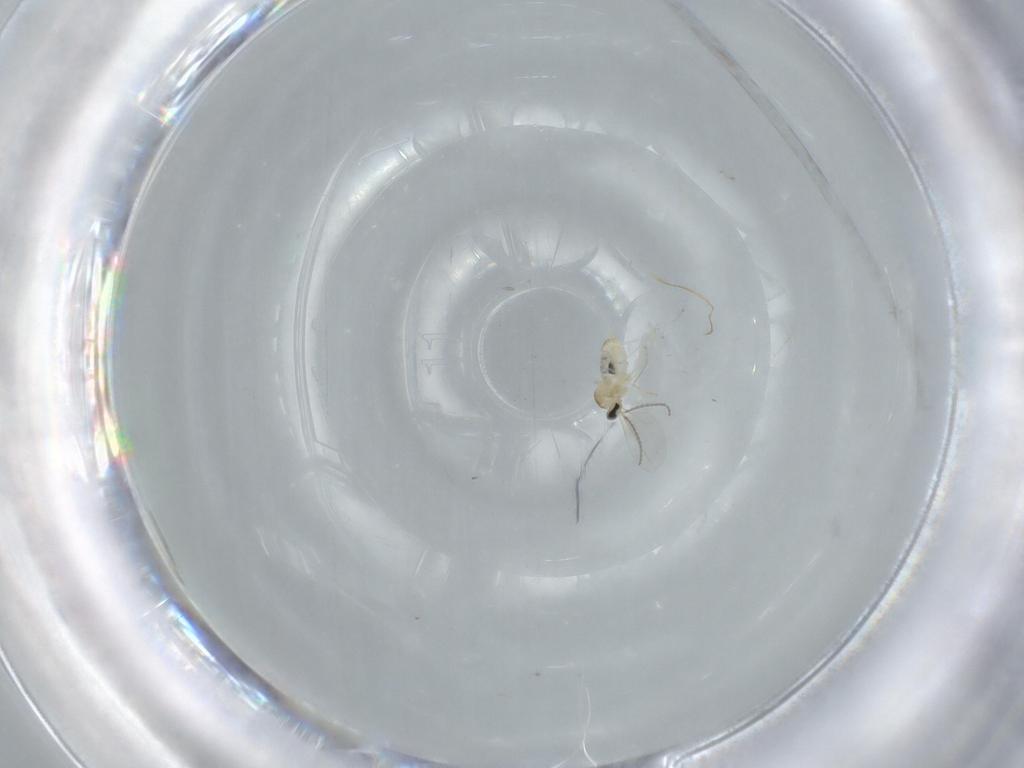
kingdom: Animalia
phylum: Arthropoda
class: Insecta
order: Diptera
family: Cecidomyiidae
